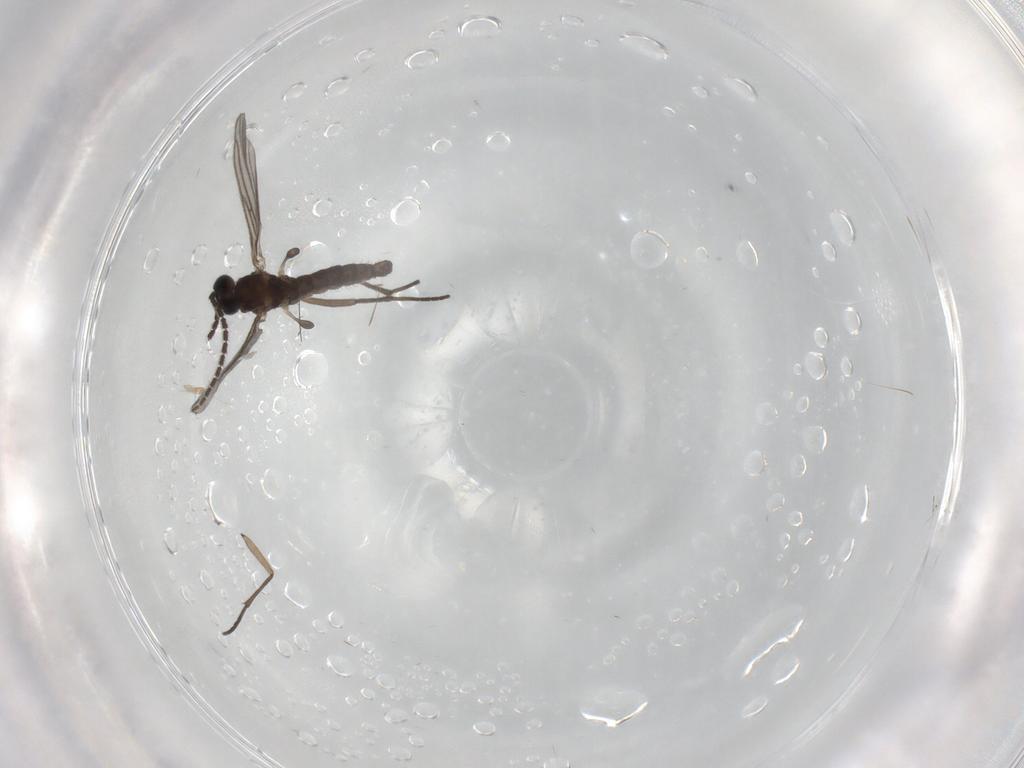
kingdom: Animalia
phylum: Arthropoda
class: Insecta
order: Diptera
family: Sciaridae
